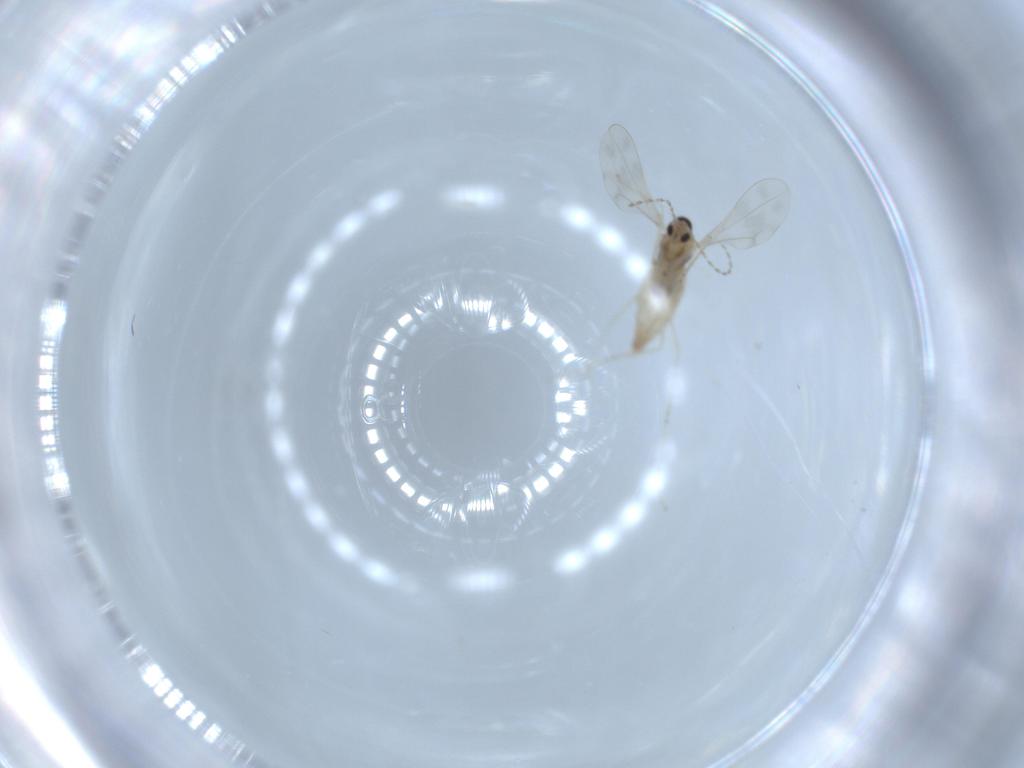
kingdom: Animalia
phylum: Arthropoda
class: Insecta
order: Diptera
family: Cecidomyiidae
